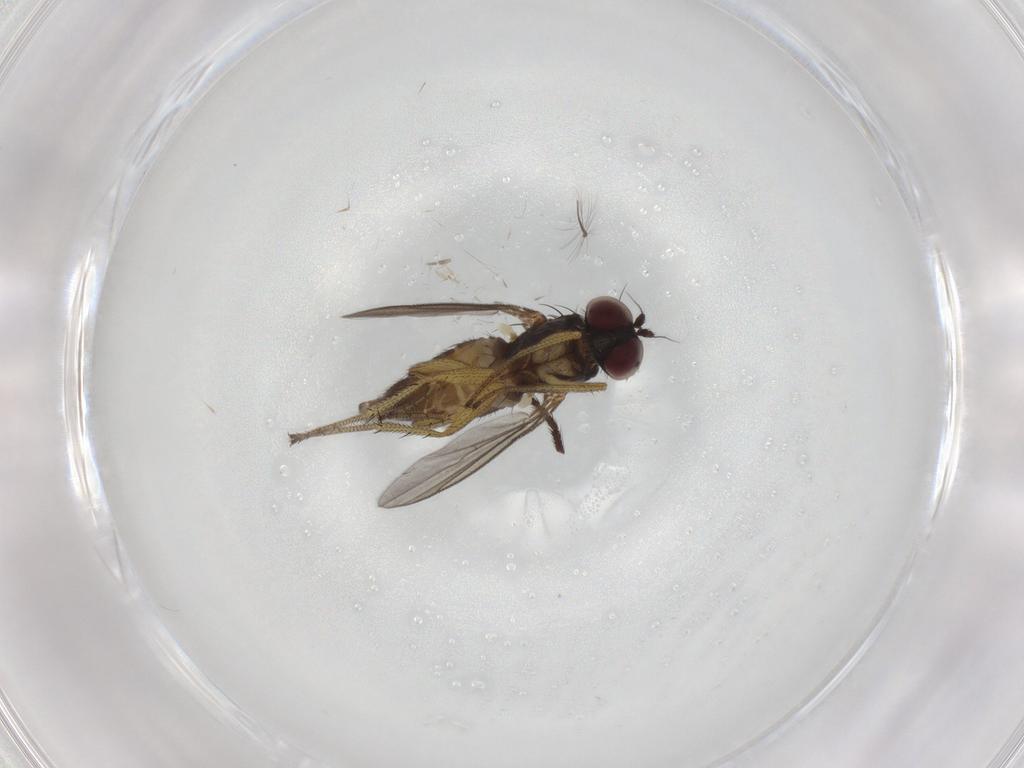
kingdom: Animalia
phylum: Arthropoda
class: Insecta
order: Diptera
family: Chironomidae
